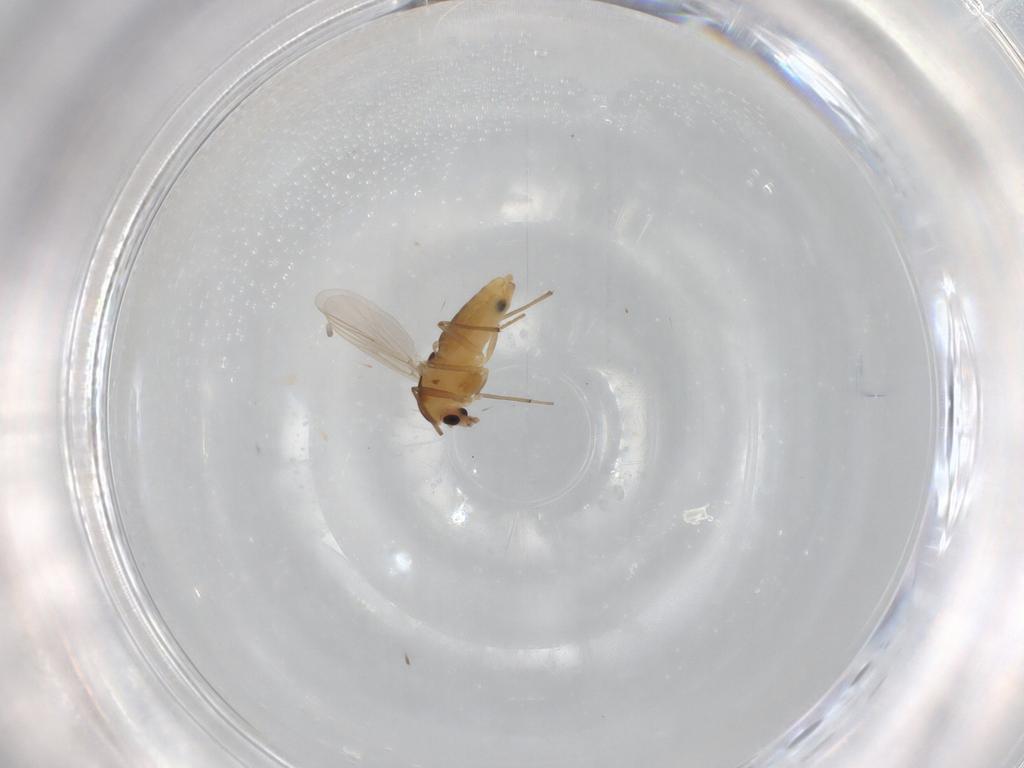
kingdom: Animalia
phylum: Arthropoda
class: Insecta
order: Diptera
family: Chironomidae
